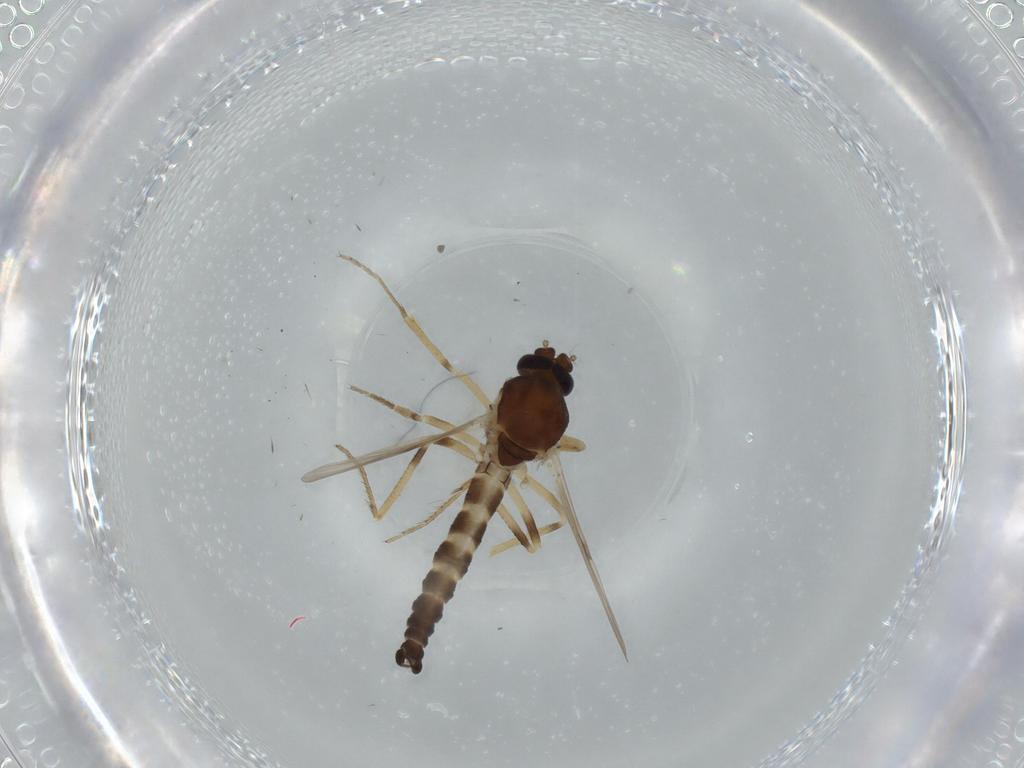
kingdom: Animalia
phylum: Arthropoda
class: Insecta
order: Diptera
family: Ceratopogonidae
